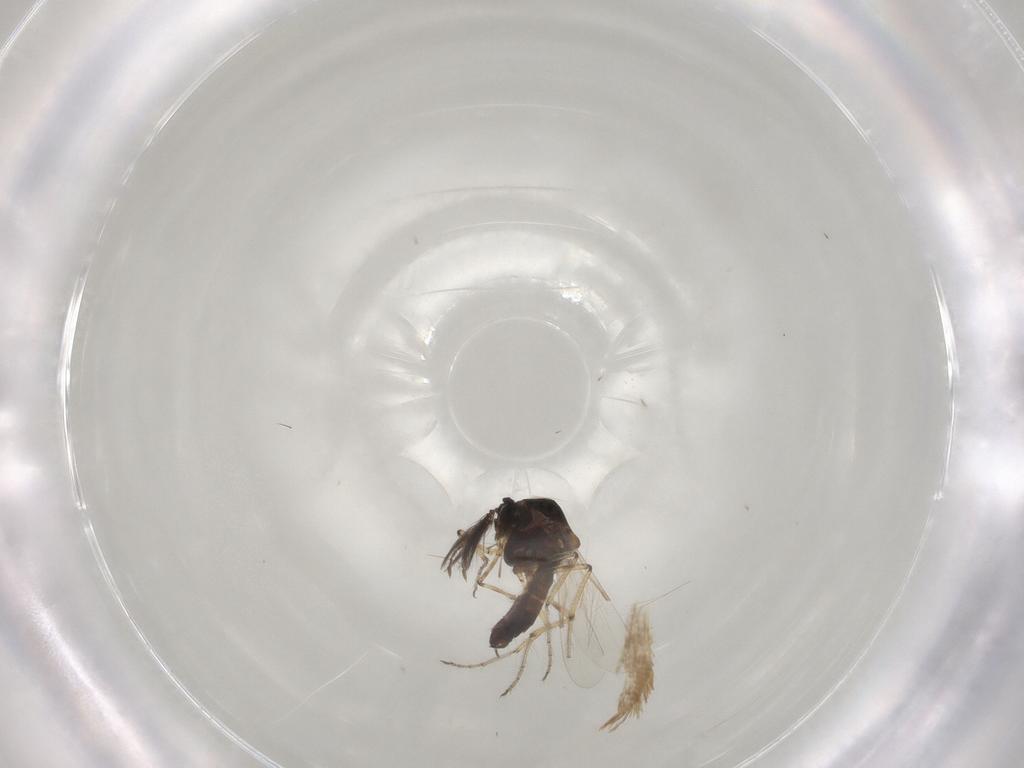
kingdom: Animalia
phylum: Arthropoda
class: Insecta
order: Diptera
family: Ceratopogonidae
